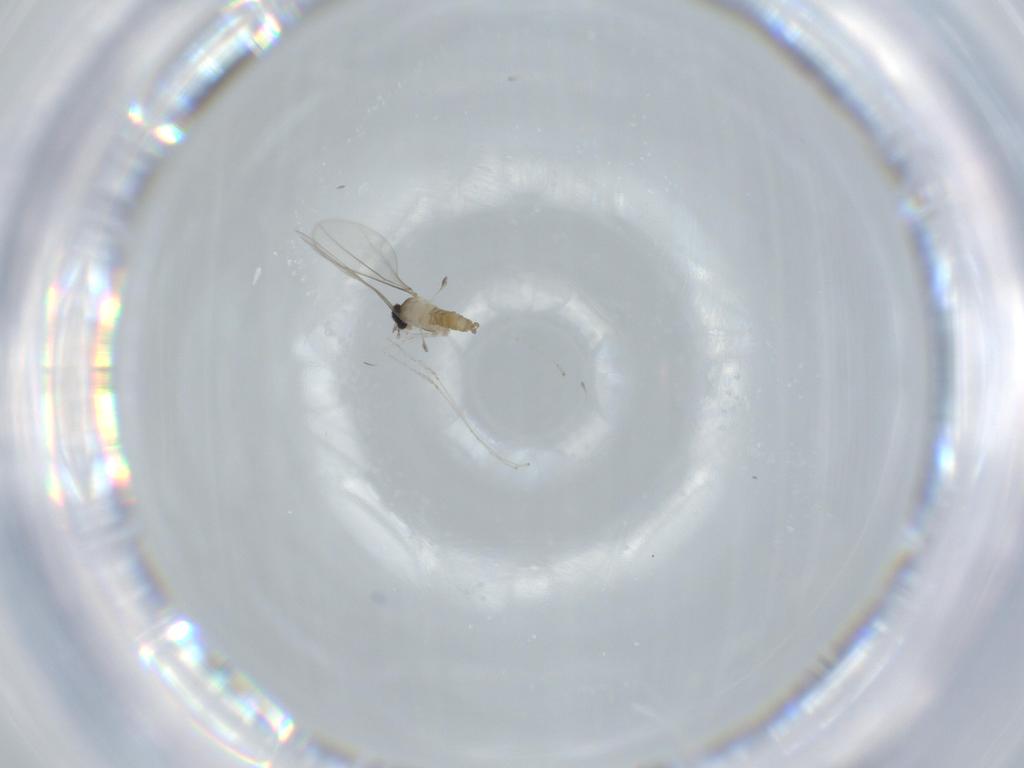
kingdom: Animalia
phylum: Arthropoda
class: Insecta
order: Diptera
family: Cecidomyiidae
